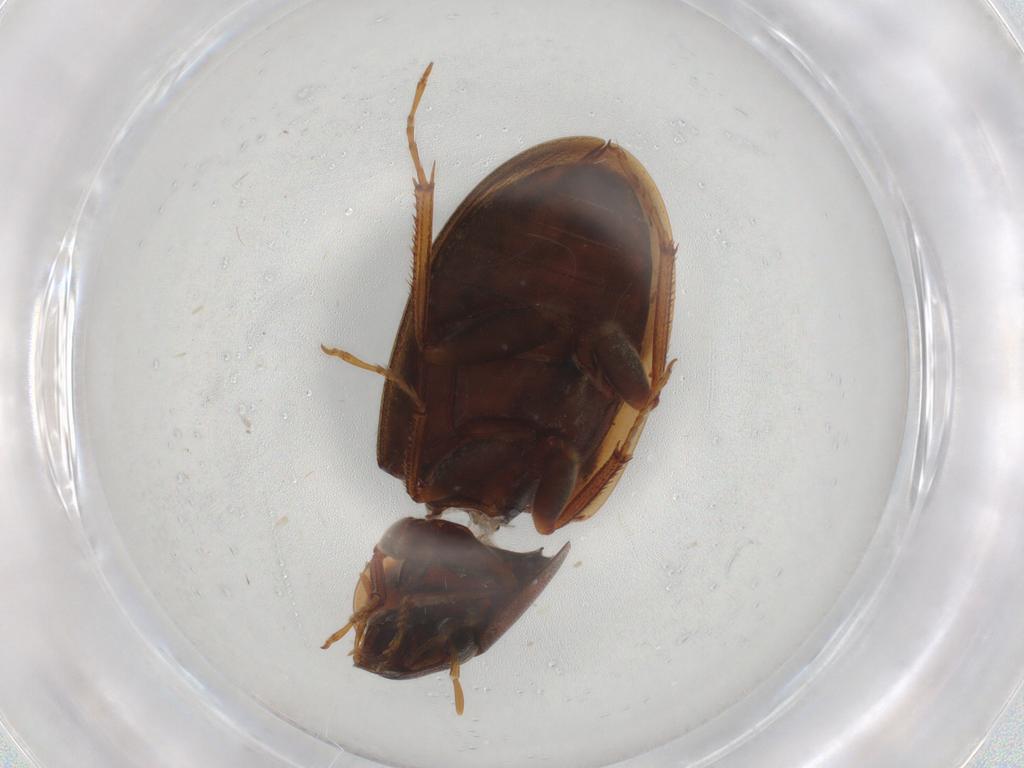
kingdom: Animalia
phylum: Arthropoda
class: Insecta
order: Coleoptera
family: Hydrophilidae
